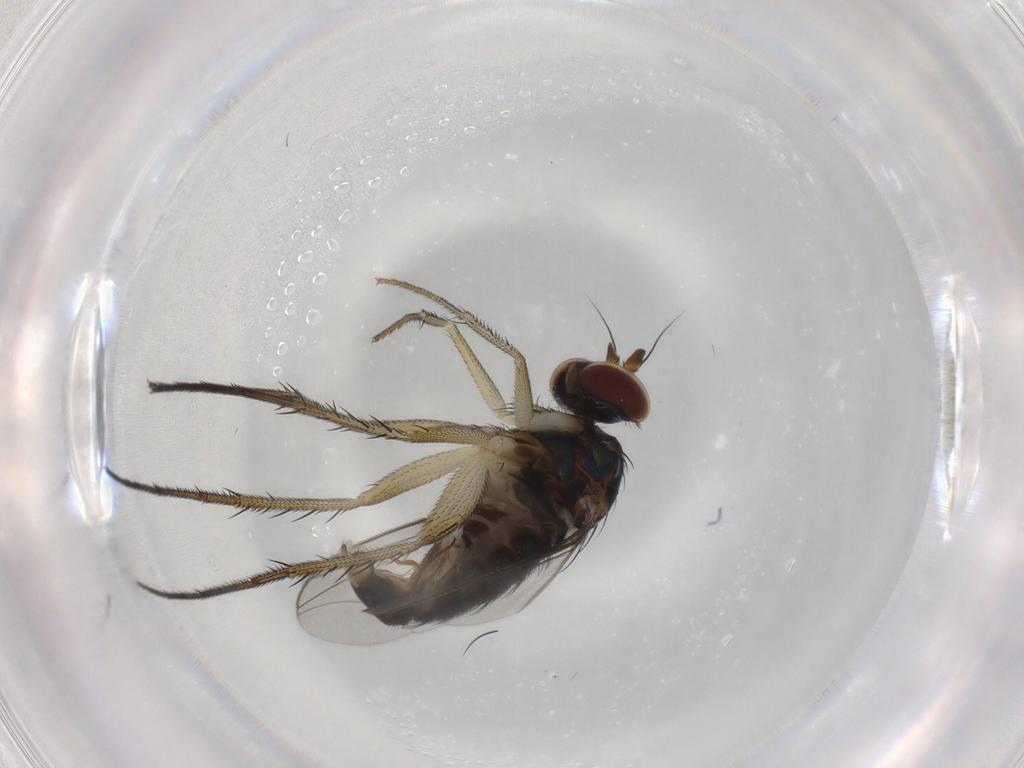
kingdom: Animalia
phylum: Arthropoda
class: Insecta
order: Diptera
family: Dolichopodidae
